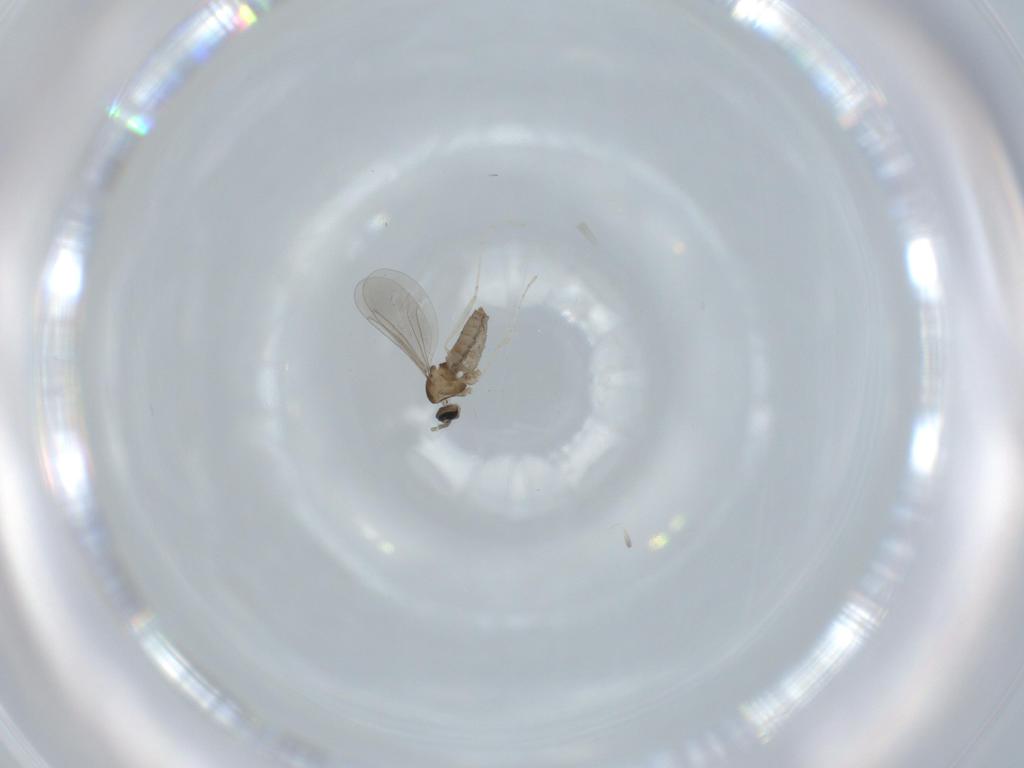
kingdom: Animalia
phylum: Arthropoda
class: Insecta
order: Diptera
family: Cecidomyiidae
